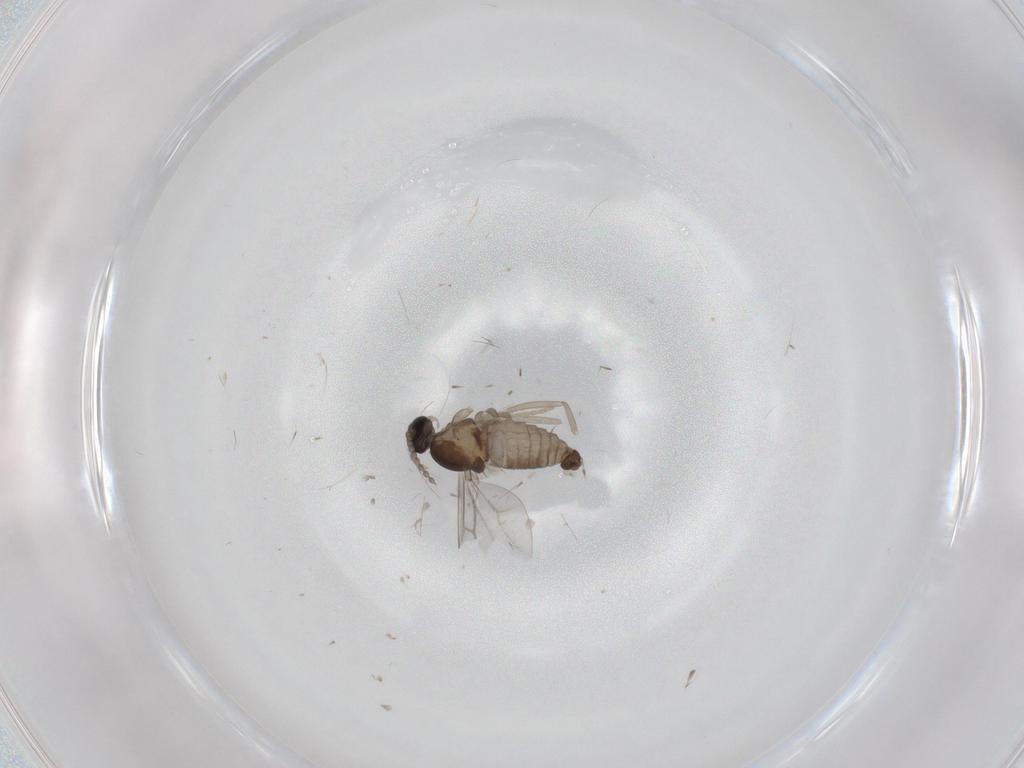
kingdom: Animalia
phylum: Arthropoda
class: Insecta
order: Diptera
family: Cecidomyiidae
